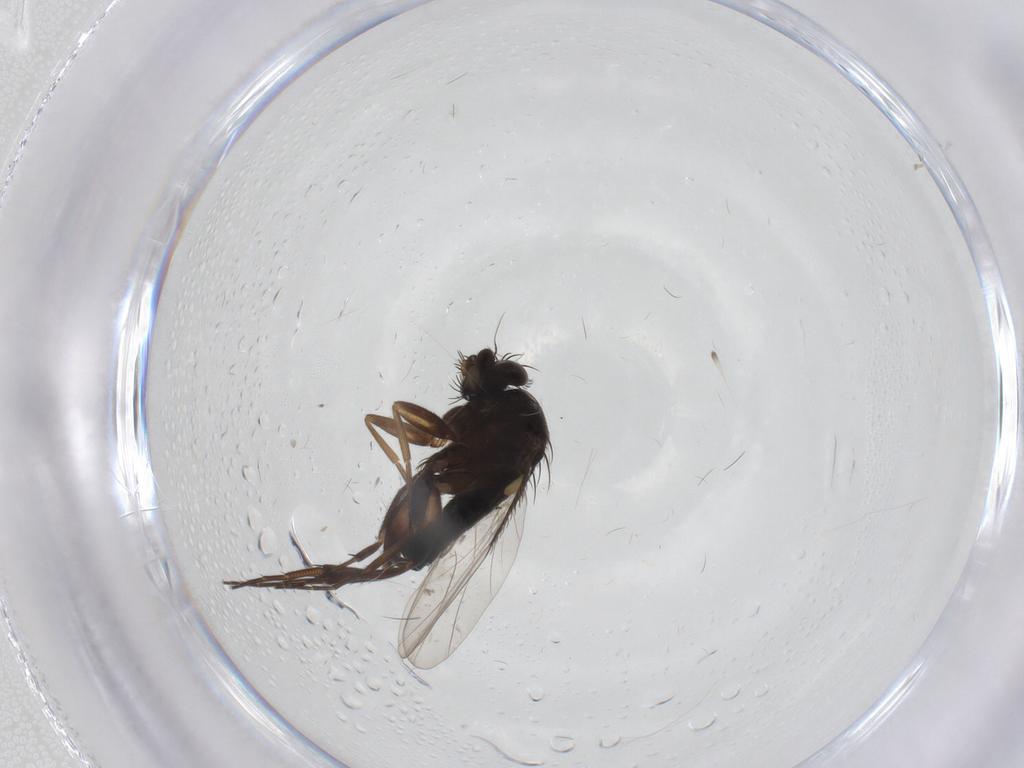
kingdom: Animalia
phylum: Arthropoda
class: Insecta
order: Diptera
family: Phoridae
